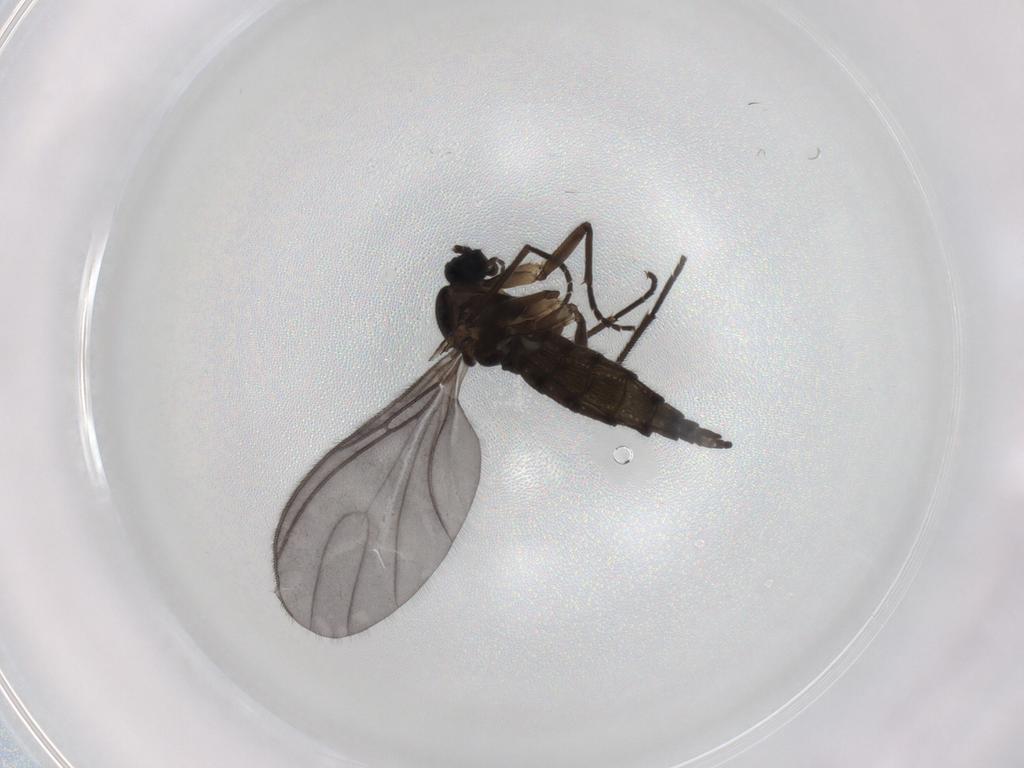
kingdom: Animalia
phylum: Arthropoda
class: Insecta
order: Diptera
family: Sciaridae
